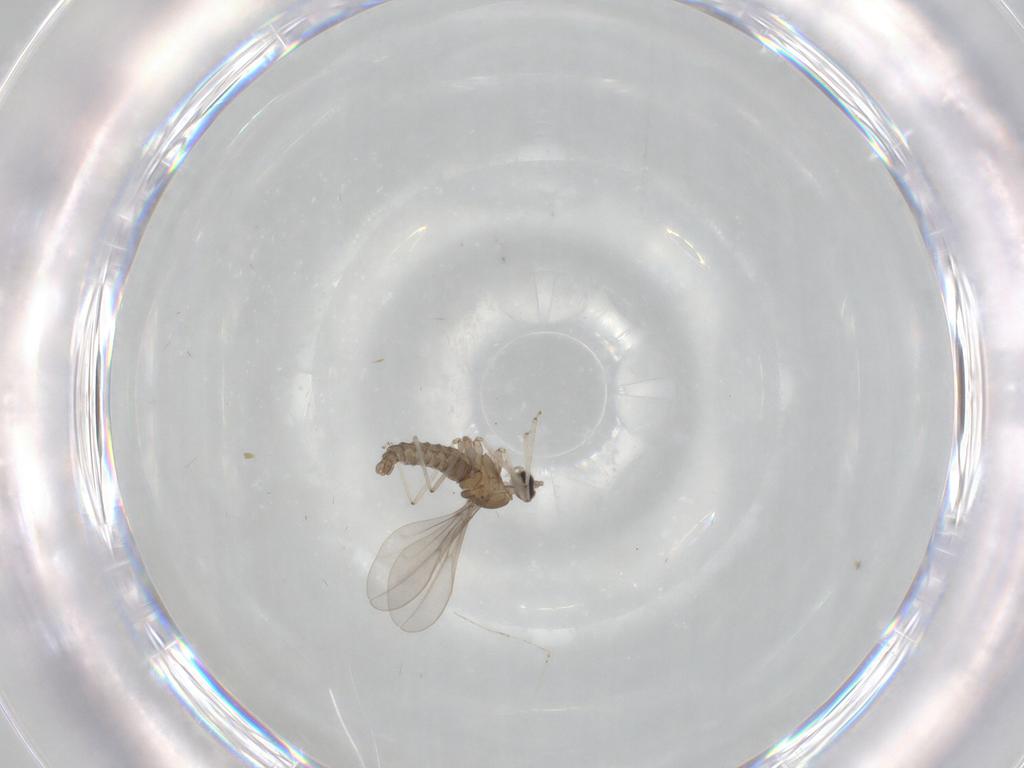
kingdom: Animalia
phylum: Arthropoda
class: Insecta
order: Diptera
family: Cecidomyiidae
